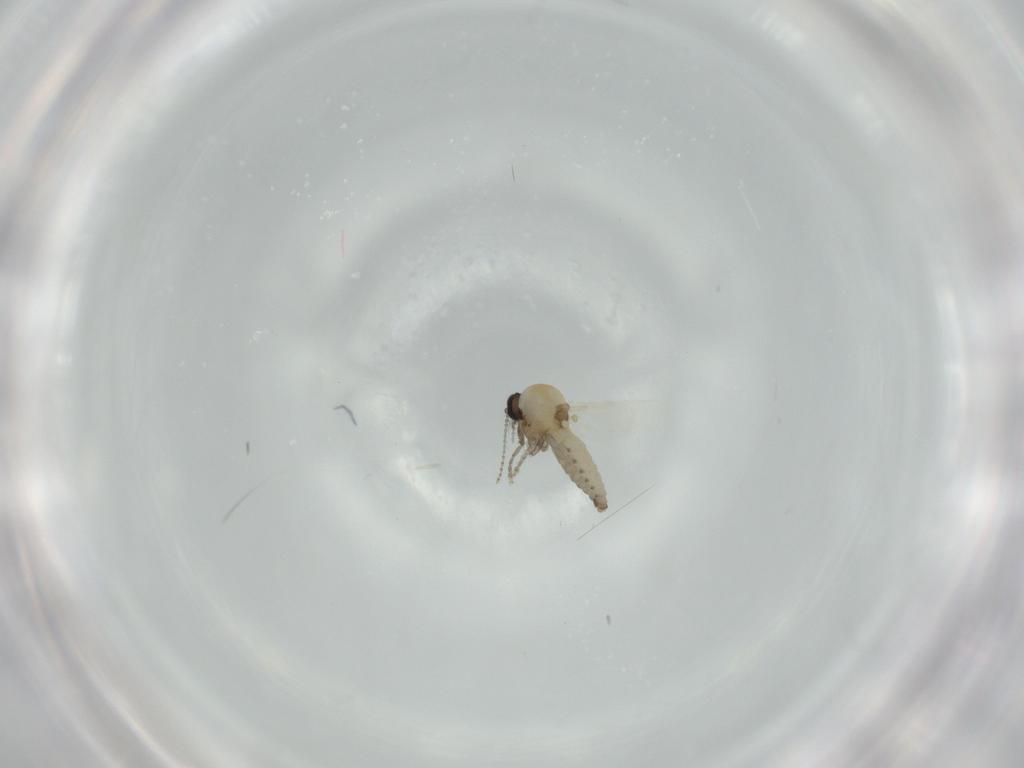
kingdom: Animalia
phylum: Arthropoda
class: Insecta
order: Diptera
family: Ceratopogonidae
